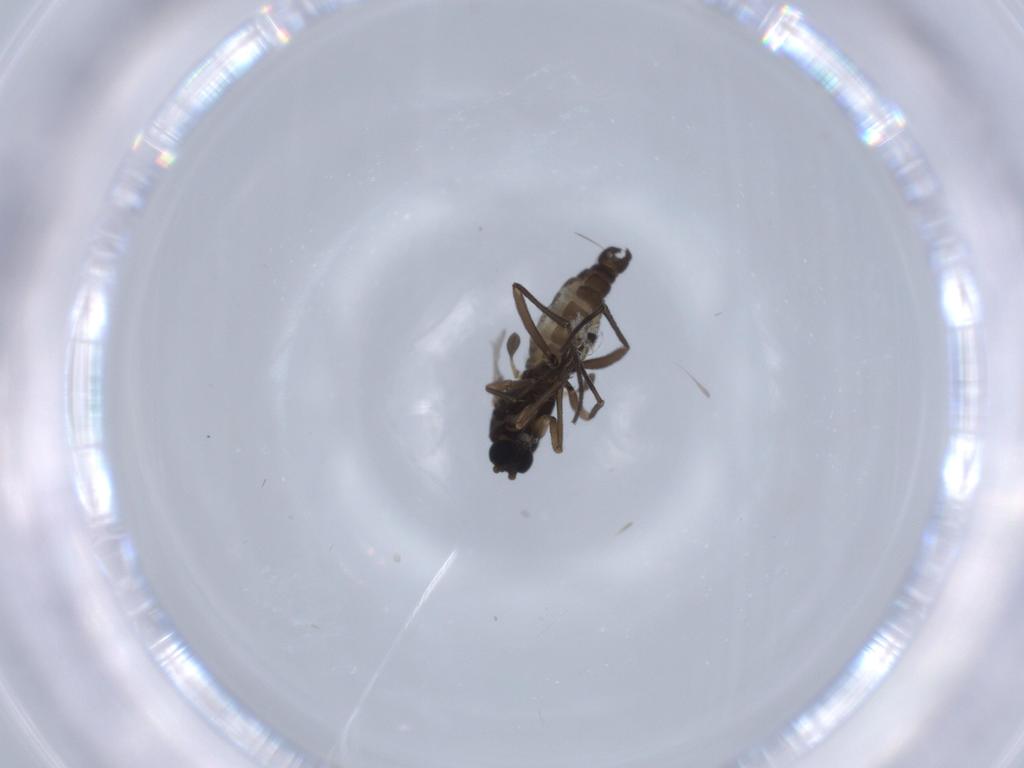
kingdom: Animalia
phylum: Arthropoda
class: Insecta
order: Diptera
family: Sciaridae
